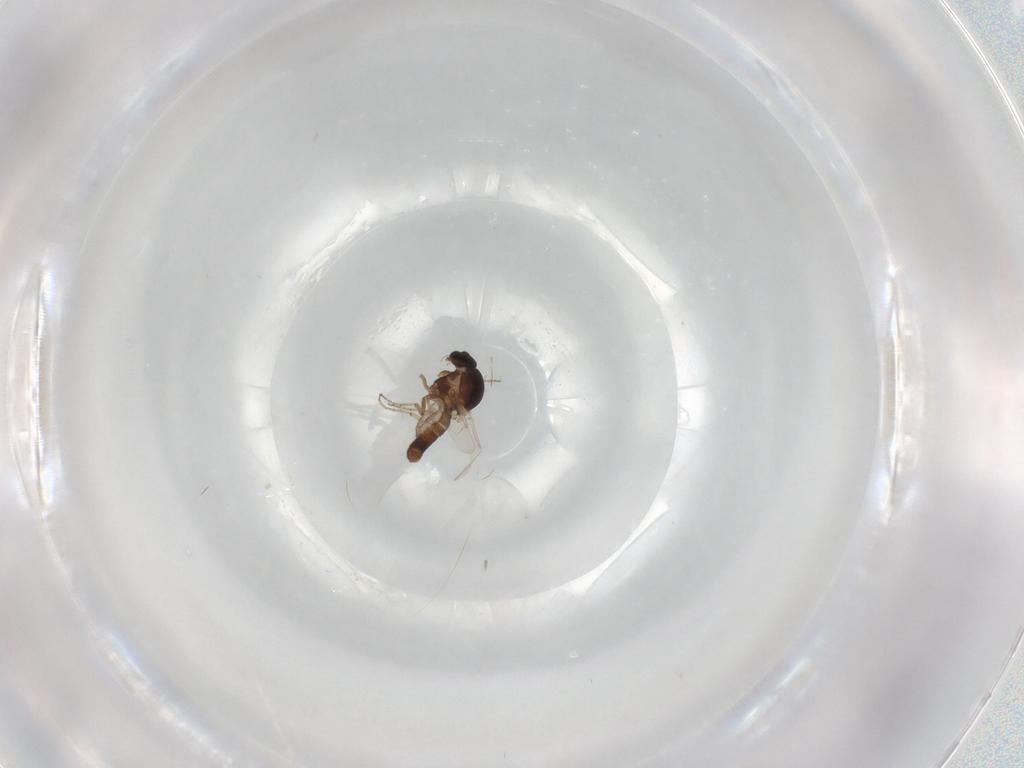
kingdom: Animalia
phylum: Arthropoda
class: Insecta
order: Diptera
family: Ceratopogonidae
